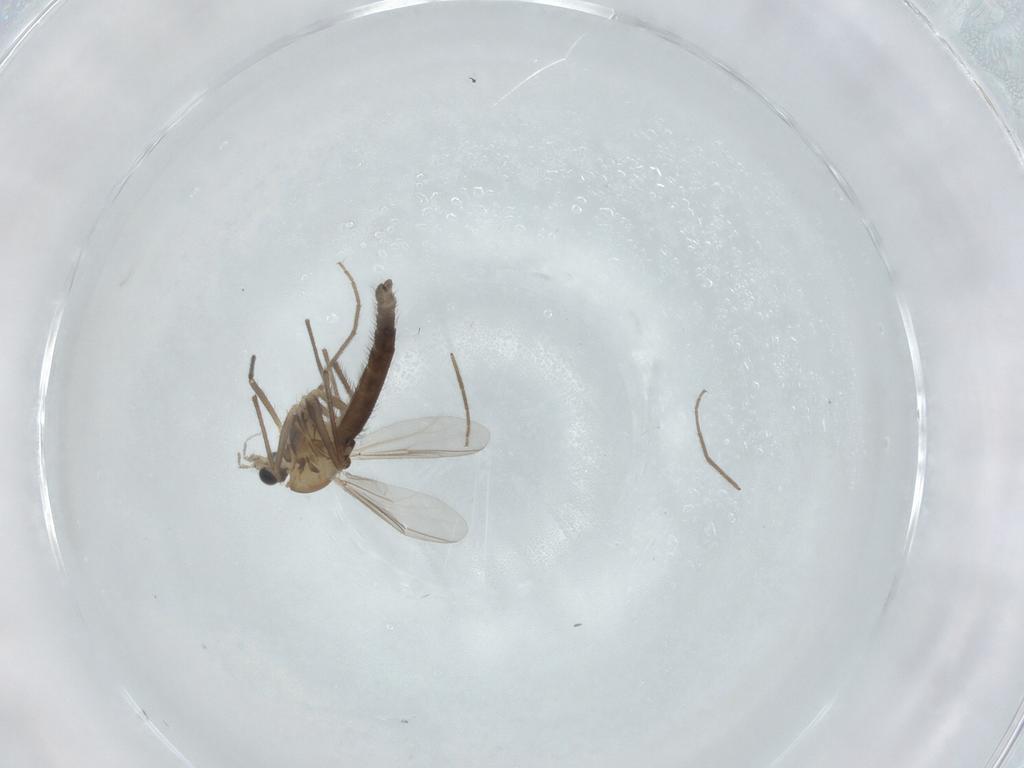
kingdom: Animalia
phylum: Arthropoda
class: Insecta
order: Diptera
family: Chironomidae
